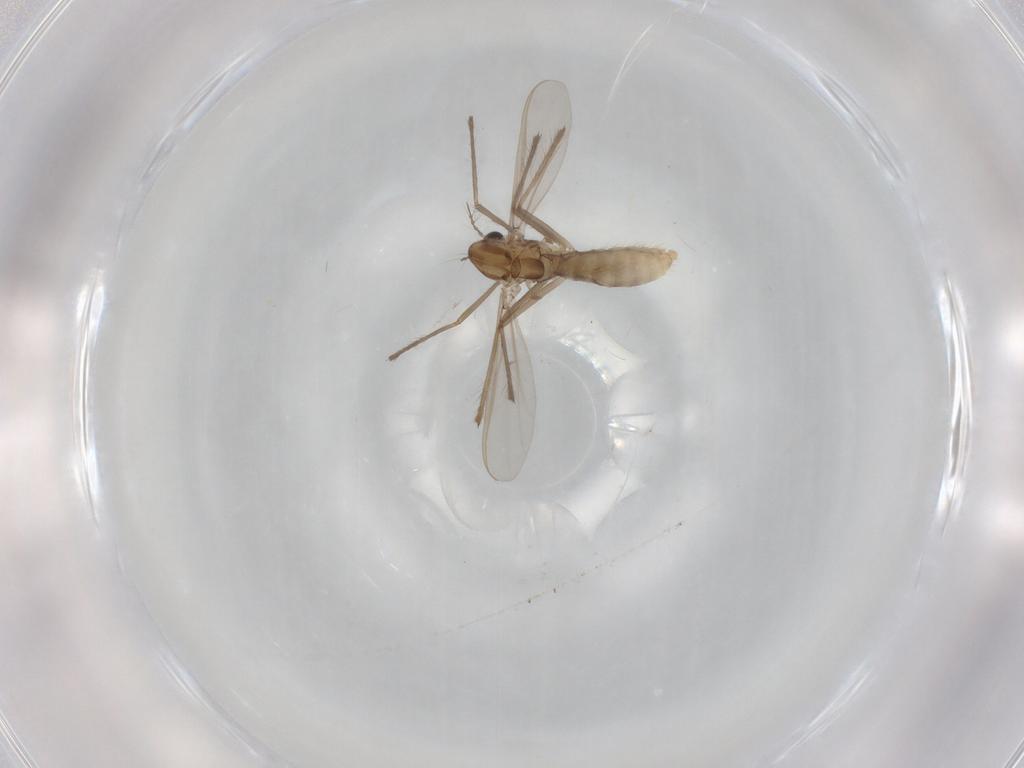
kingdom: Animalia
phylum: Arthropoda
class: Insecta
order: Diptera
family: Chironomidae
